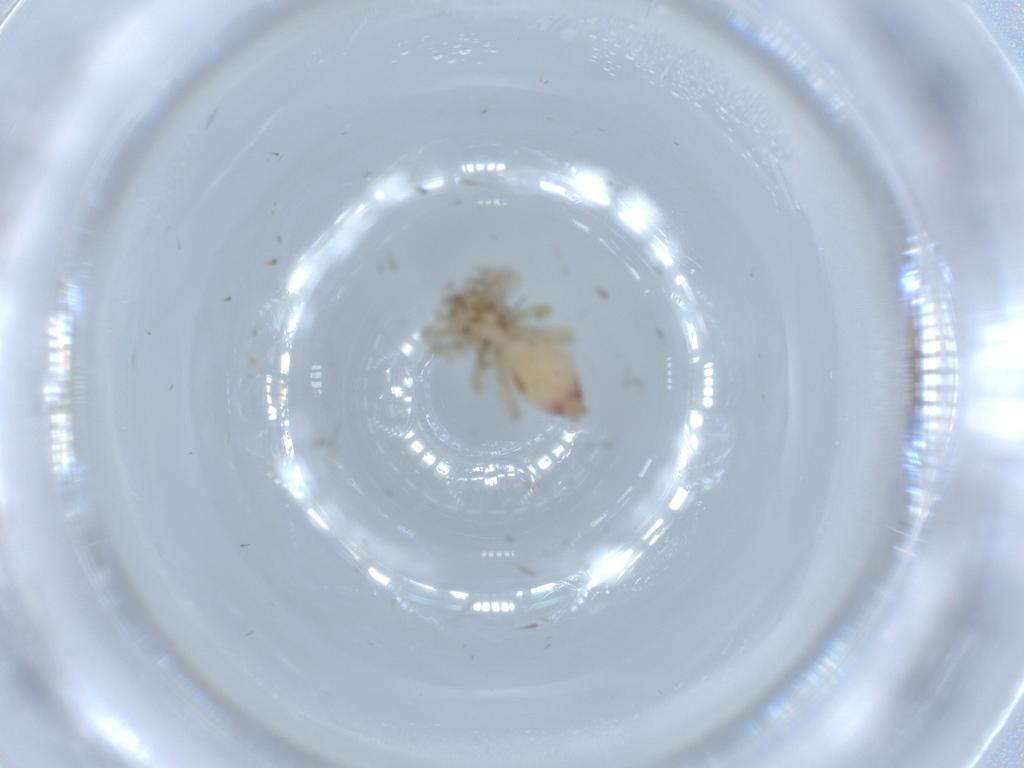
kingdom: Animalia
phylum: Arthropoda
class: Arachnida
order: Araneae
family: Clubionidae
